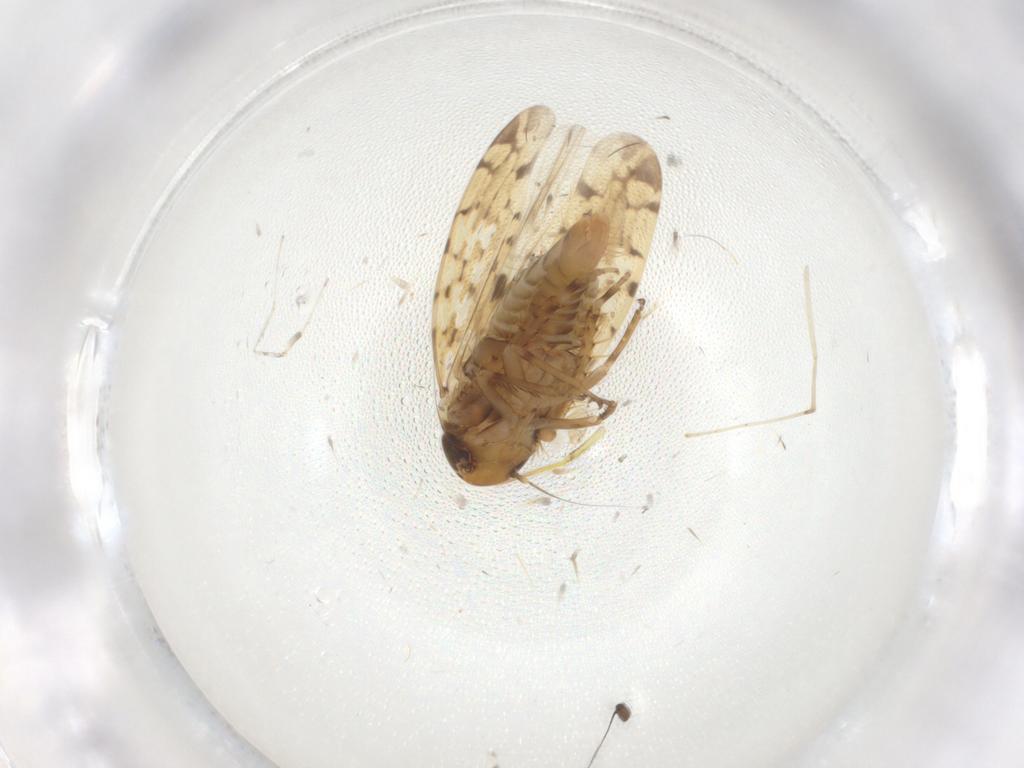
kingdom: Animalia
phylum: Arthropoda
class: Insecta
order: Hemiptera
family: Cicadellidae
